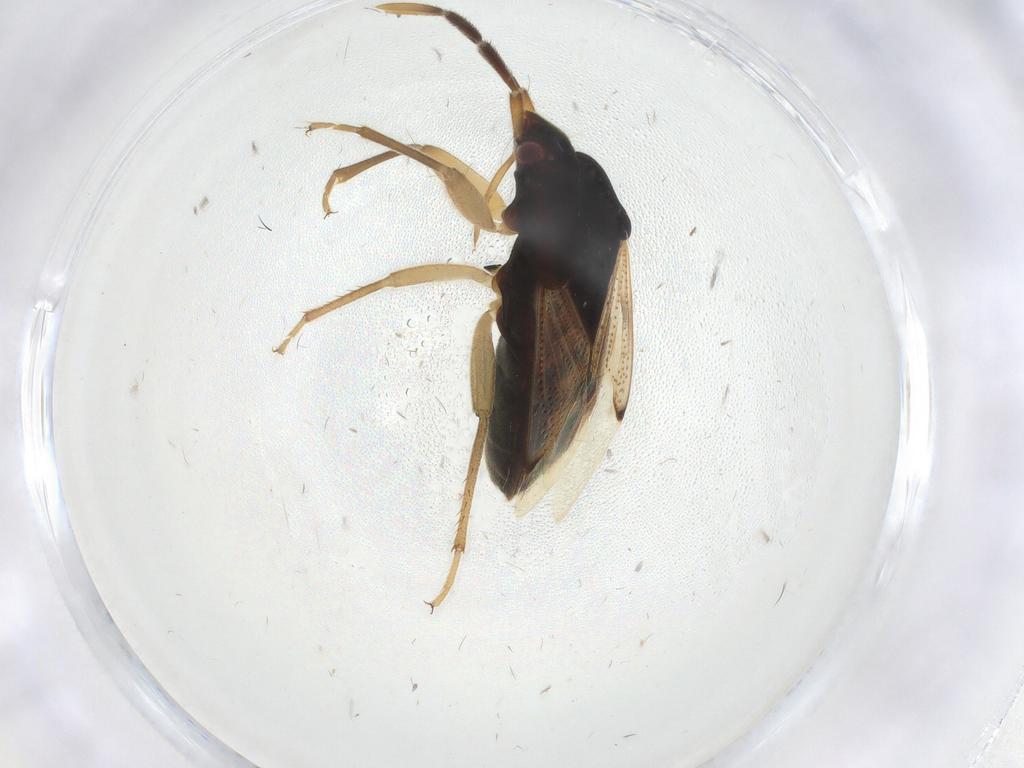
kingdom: Animalia
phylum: Arthropoda
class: Insecta
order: Hemiptera
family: Rhyparochromidae
